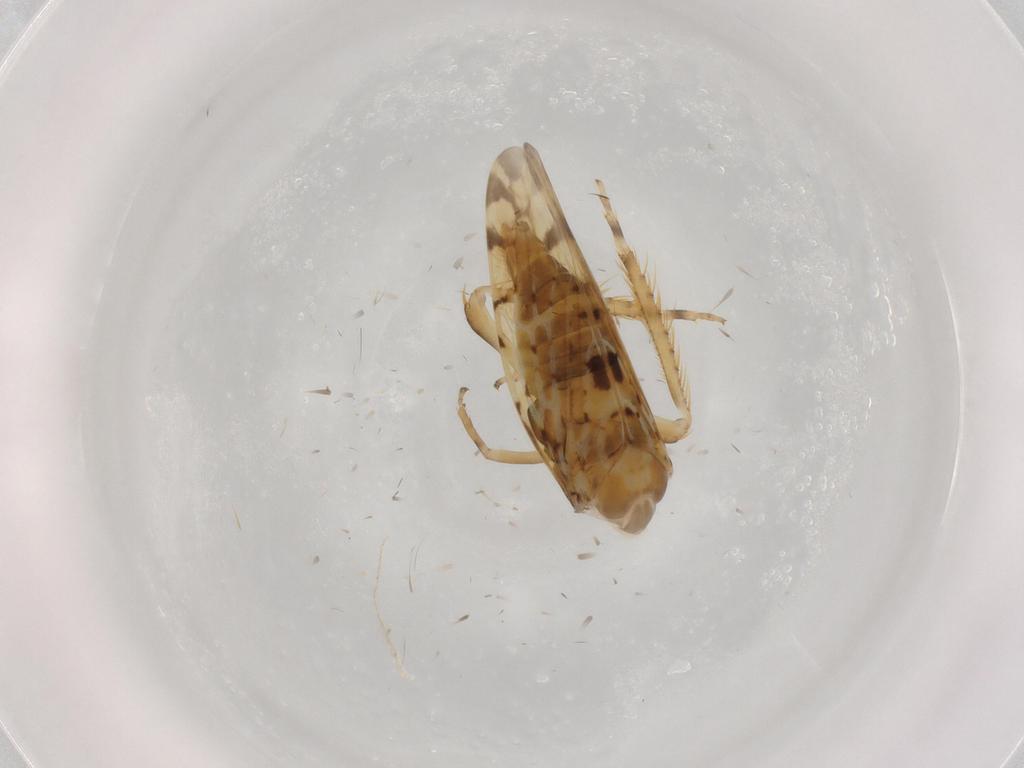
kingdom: Animalia
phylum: Arthropoda
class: Insecta
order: Hemiptera
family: Cicadellidae
